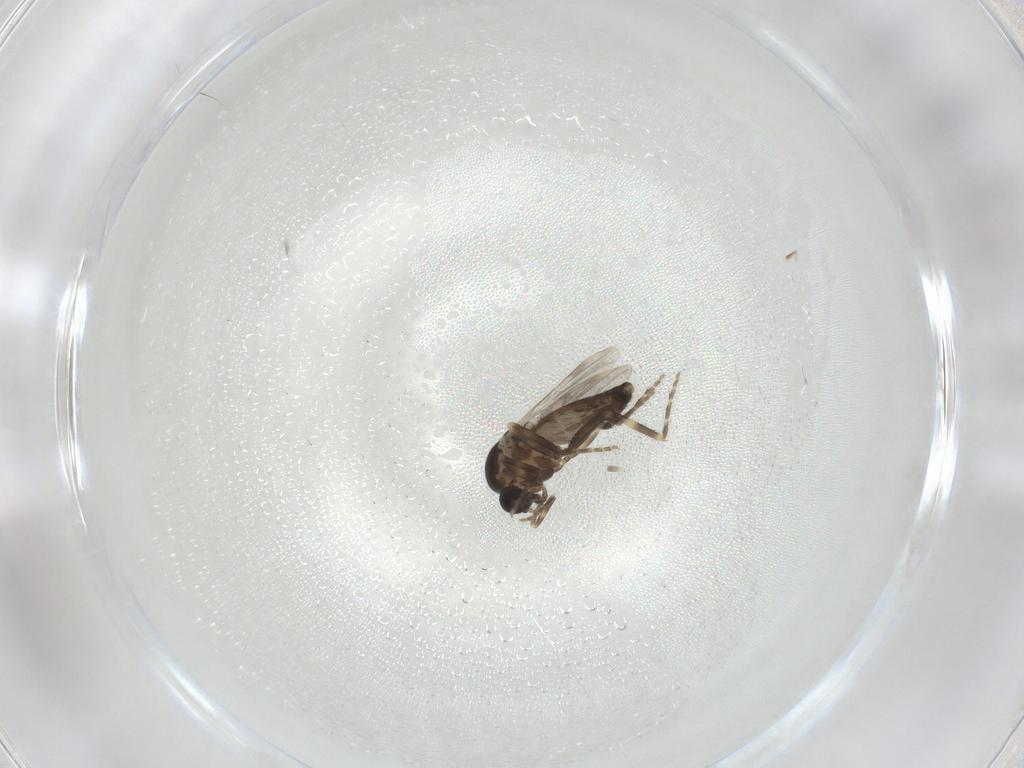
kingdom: Animalia
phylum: Arthropoda
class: Insecta
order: Diptera
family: Ceratopogonidae
